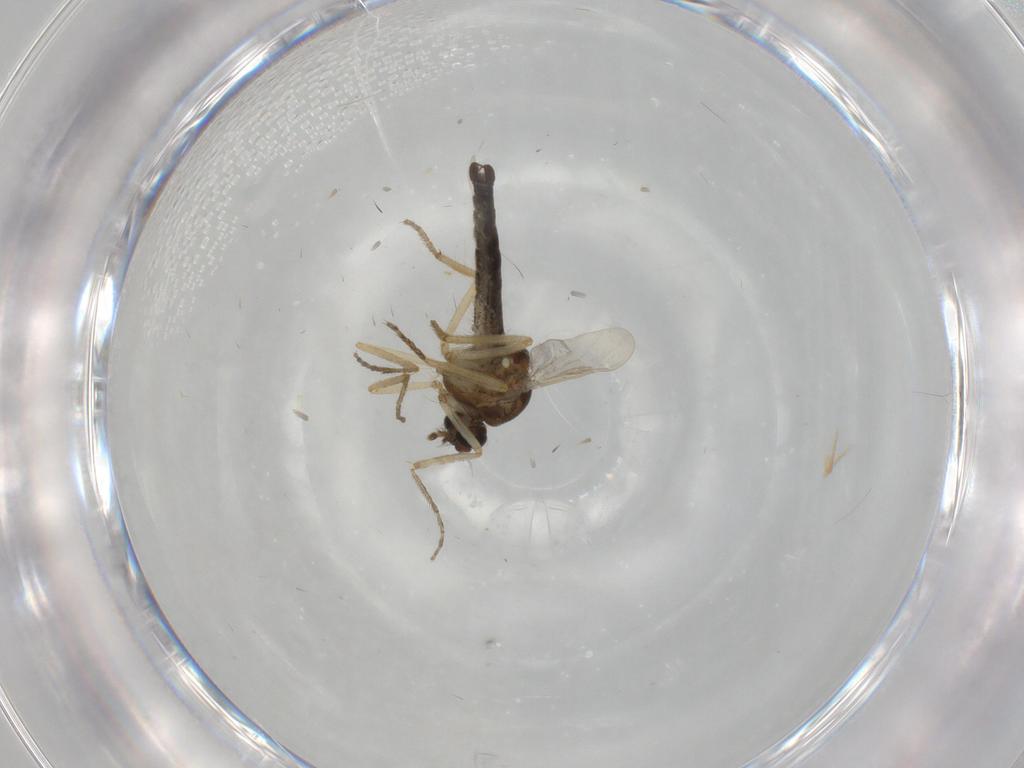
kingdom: Animalia
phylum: Arthropoda
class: Insecta
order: Diptera
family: Ceratopogonidae
